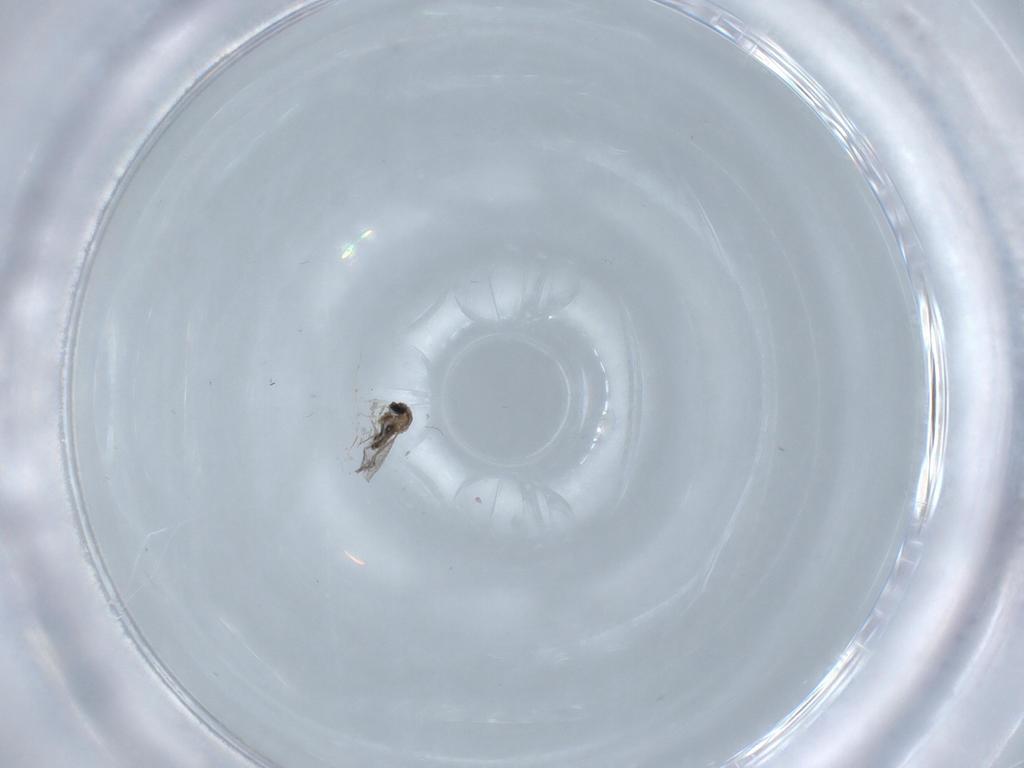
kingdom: Animalia
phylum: Arthropoda
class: Insecta
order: Diptera
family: Cecidomyiidae
